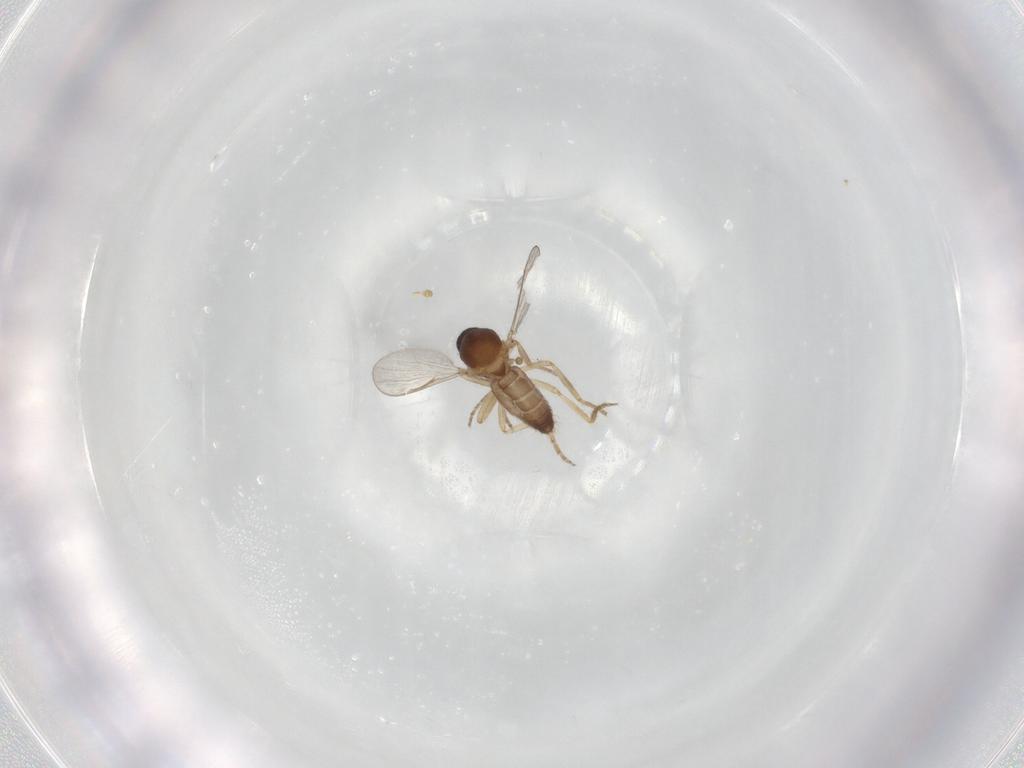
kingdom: Animalia
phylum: Arthropoda
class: Insecta
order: Diptera
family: Ceratopogonidae
